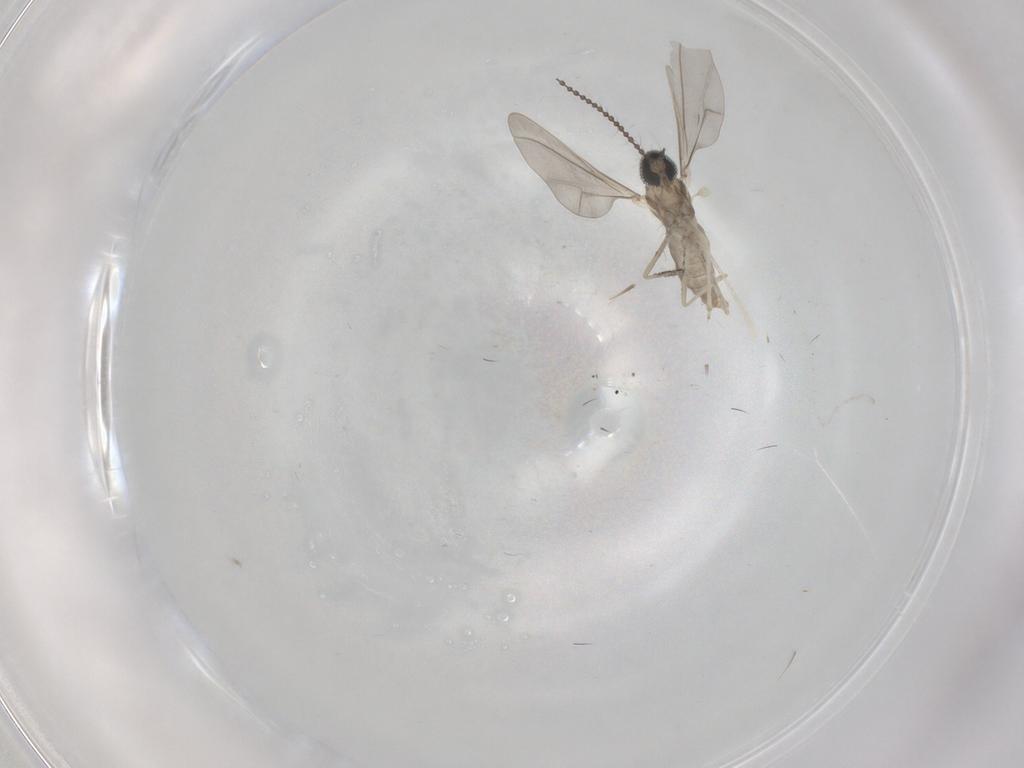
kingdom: Animalia
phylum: Arthropoda
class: Insecta
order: Diptera
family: Cecidomyiidae
